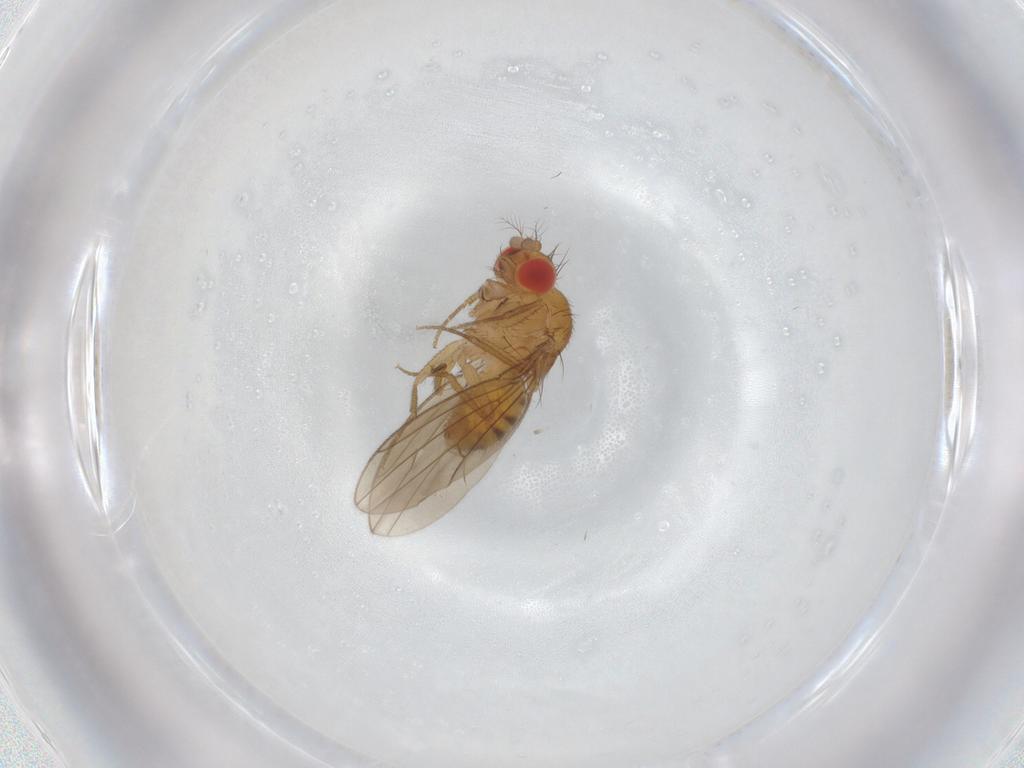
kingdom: Animalia
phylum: Arthropoda
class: Insecta
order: Diptera
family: Drosophilidae
